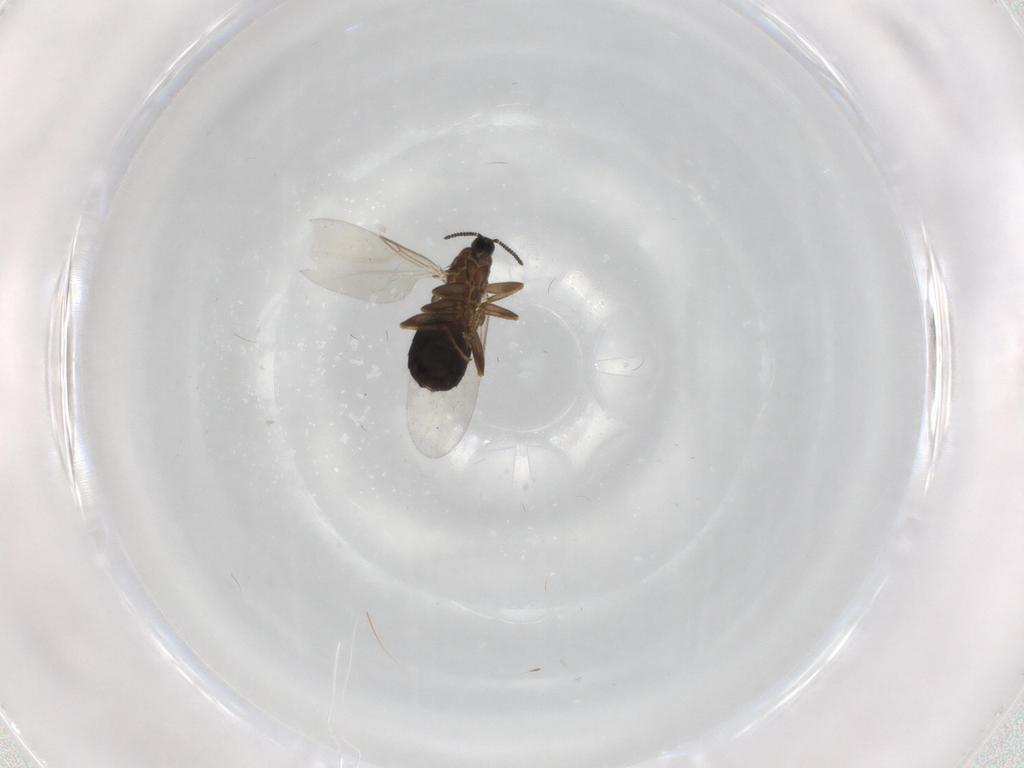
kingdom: Animalia
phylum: Arthropoda
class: Insecta
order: Diptera
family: Scatopsidae
